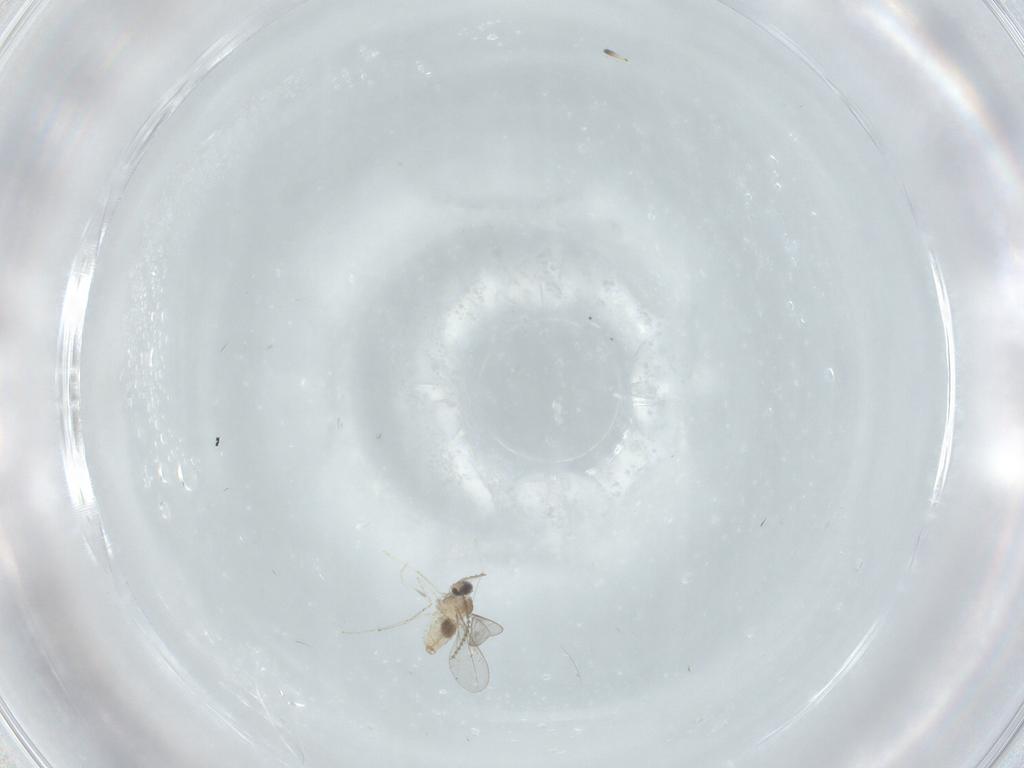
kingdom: Animalia
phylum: Arthropoda
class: Insecta
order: Diptera
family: Cecidomyiidae
